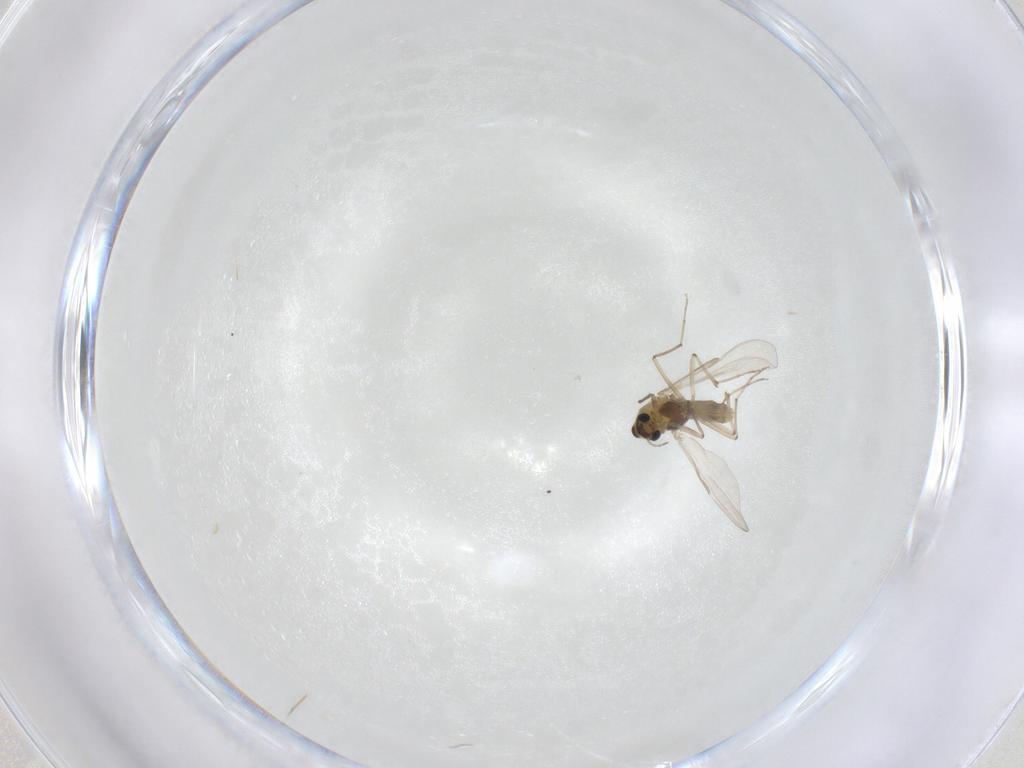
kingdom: Animalia
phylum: Arthropoda
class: Insecta
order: Diptera
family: Chironomidae
